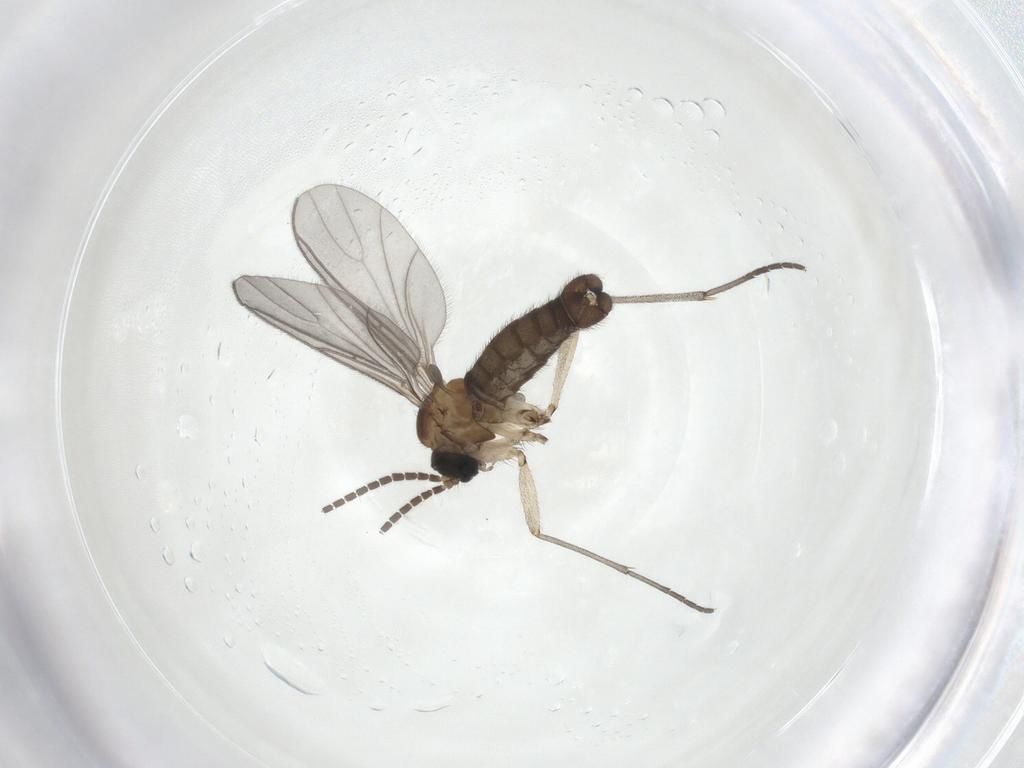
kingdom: Animalia
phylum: Arthropoda
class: Insecta
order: Diptera
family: Sciaridae
